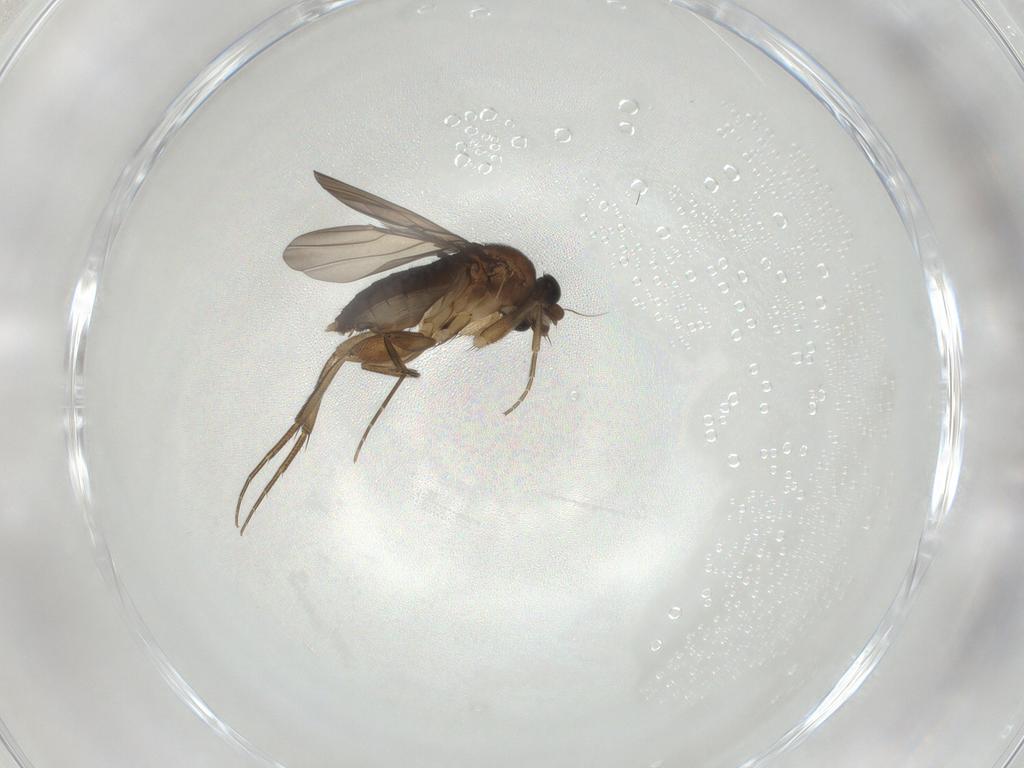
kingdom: Animalia
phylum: Arthropoda
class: Insecta
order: Diptera
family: Phoridae
